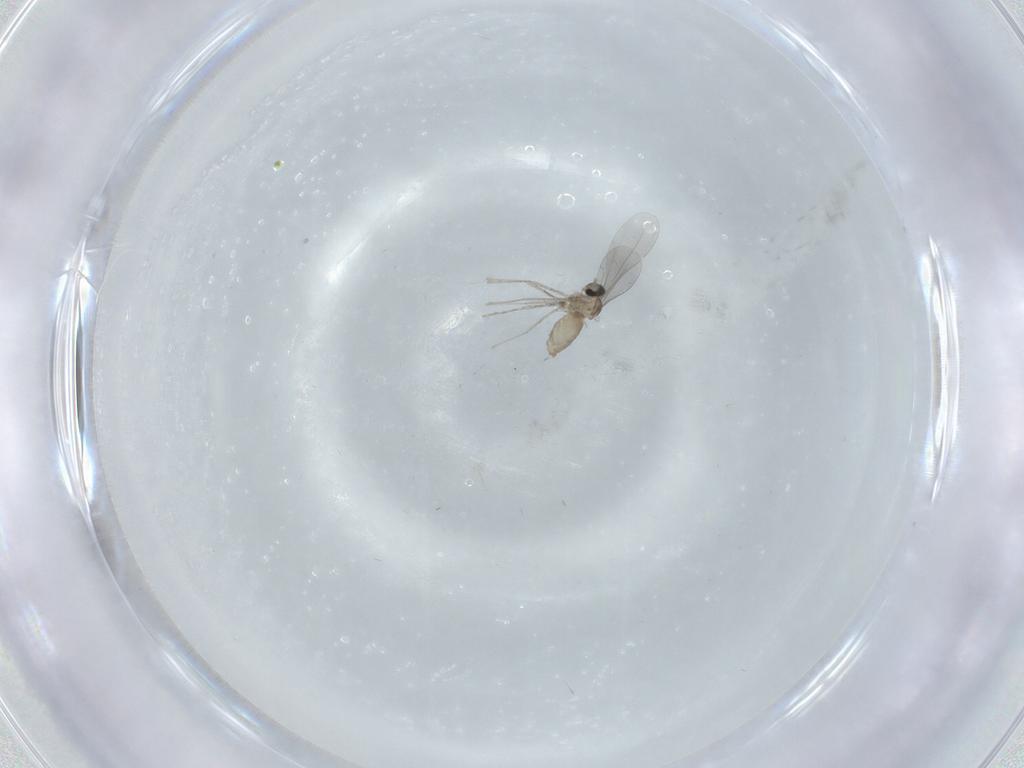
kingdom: Animalia
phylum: Arthropoda
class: Insecta
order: Diptera
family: Cecidomyiidae
